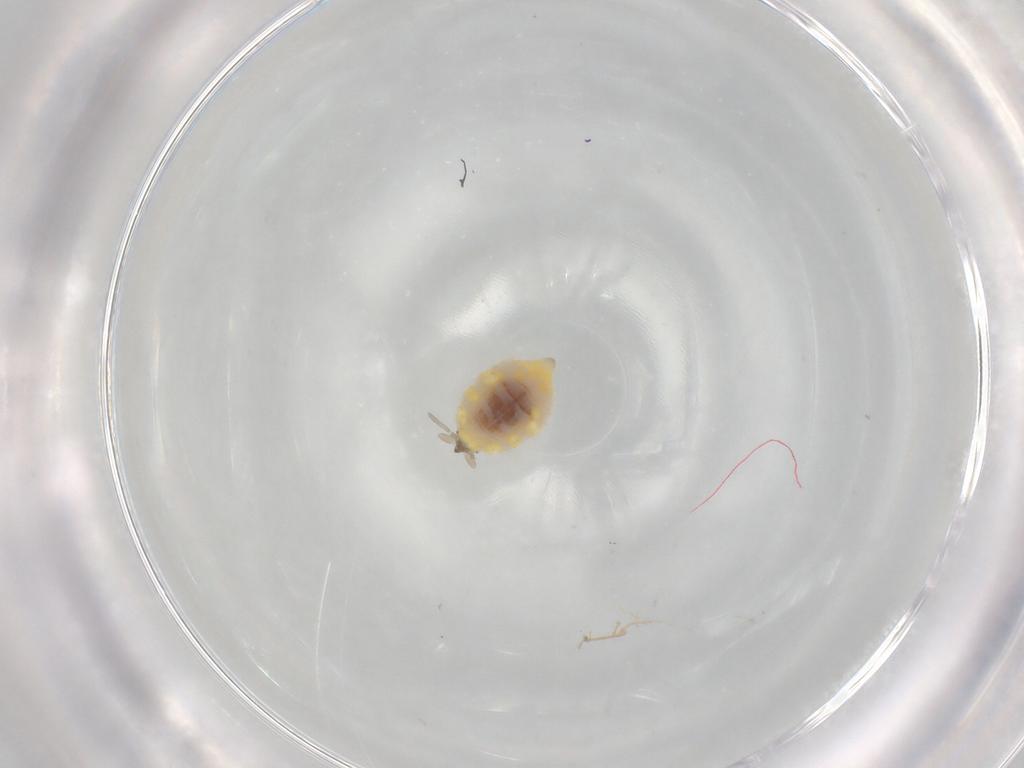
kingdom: Animalia
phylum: Arthropoda
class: Insecta
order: Neuroptera
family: Coniopterygidae
